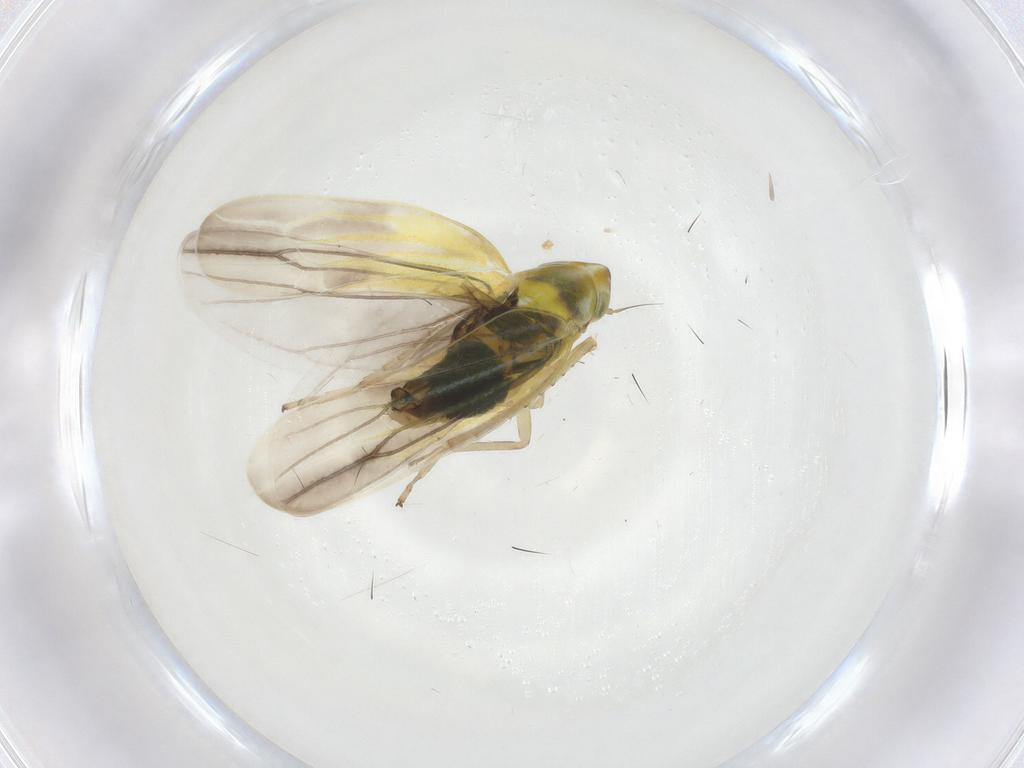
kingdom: Animalia
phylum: Arthropoda
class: Insecta
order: Hemiptera
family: Cicadellidae
